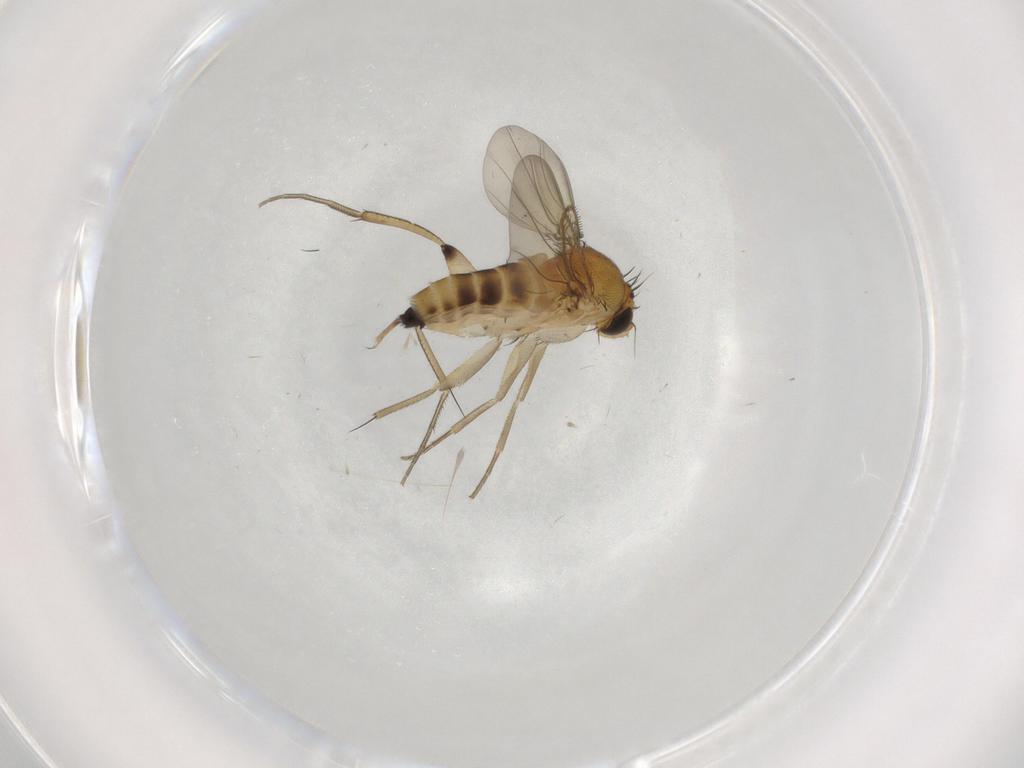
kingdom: Animalia
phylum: Arthropoda
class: Insecta
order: Diptera
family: Phoridae
